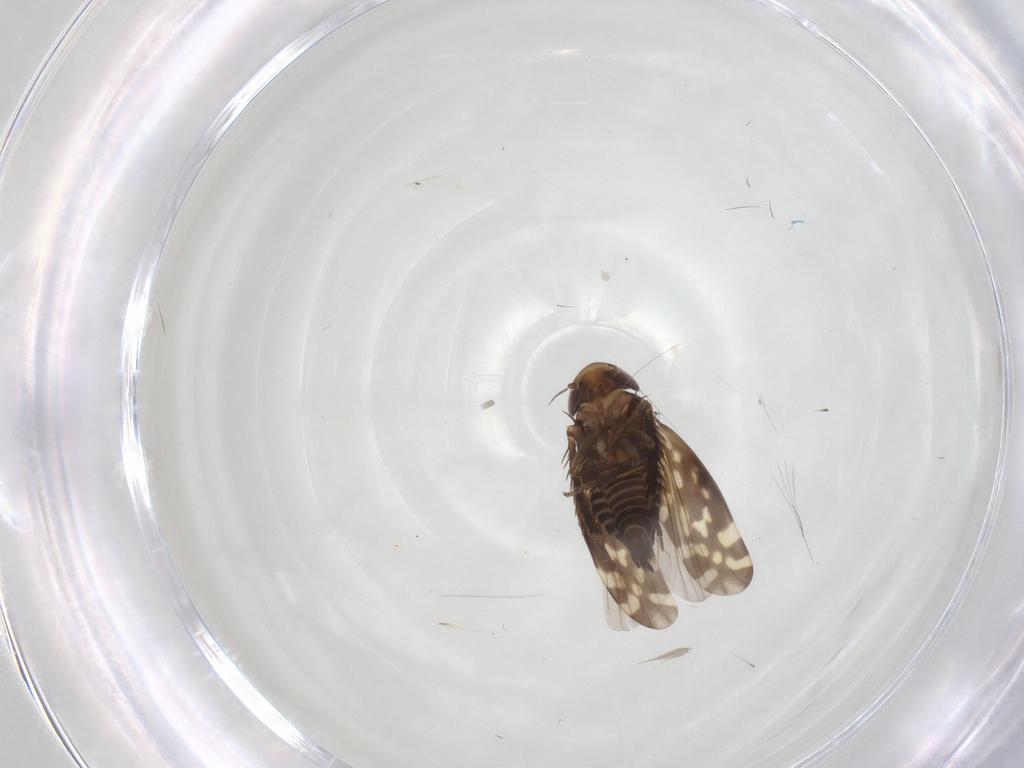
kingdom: Animalia
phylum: Arthropoda
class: Insecta
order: Hemiptera
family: Cicadellidae
